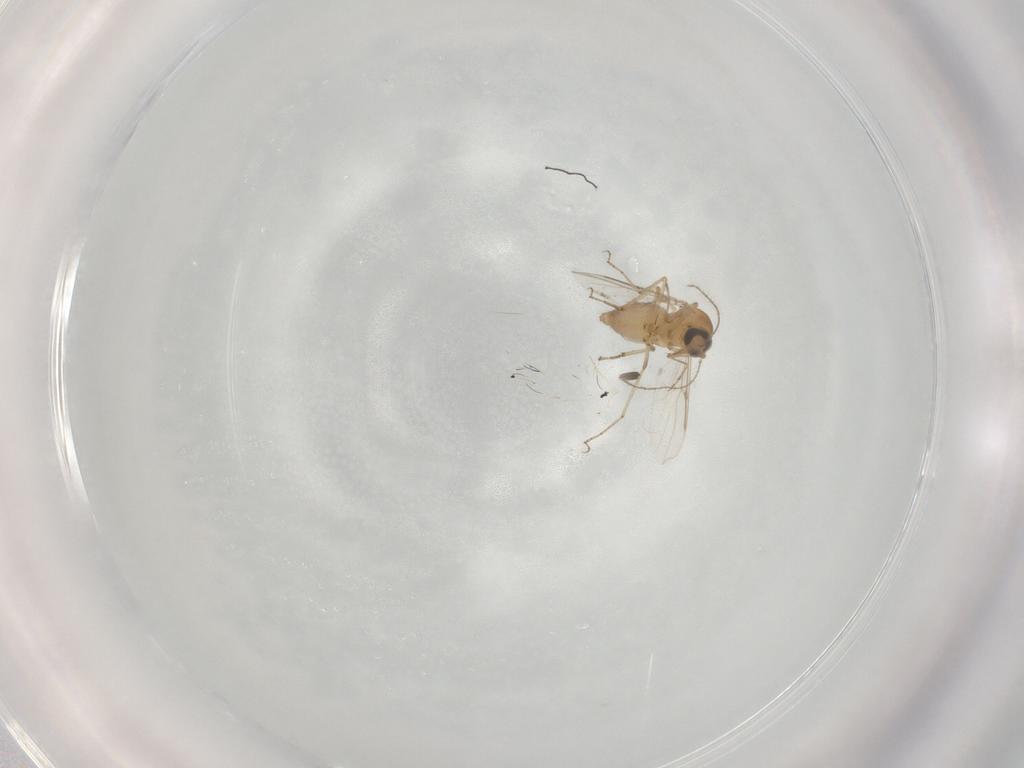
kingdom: Animalia
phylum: Arthropoda
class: Insecta
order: Diptera
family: Ceratopogonidae
